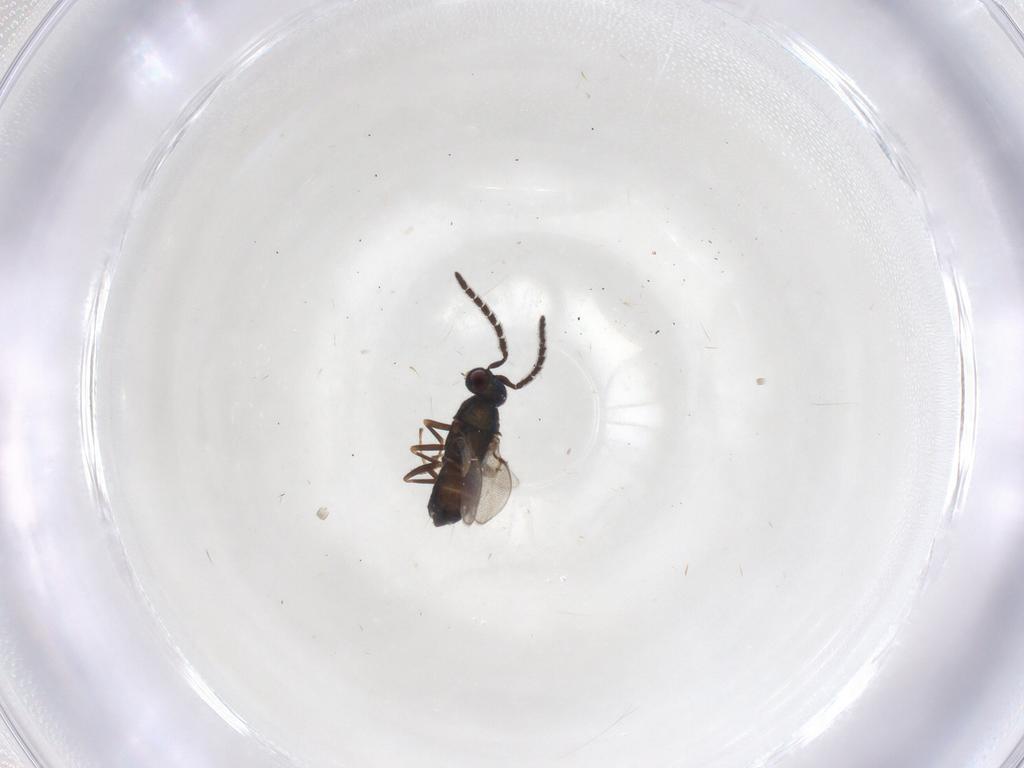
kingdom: Animalia
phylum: Arthropoda
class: Insecta
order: Hymenoptera
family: Encyrtidae
